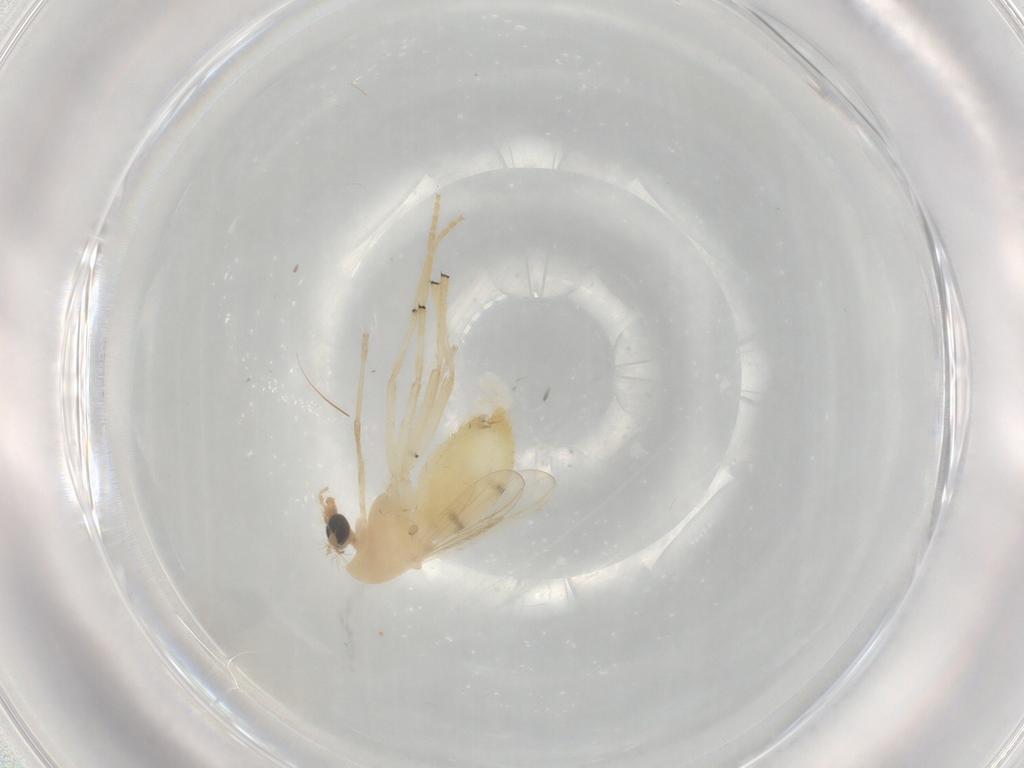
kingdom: Animalia
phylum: Arthropoda
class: Insecta
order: Diptera
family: Chironomidae
